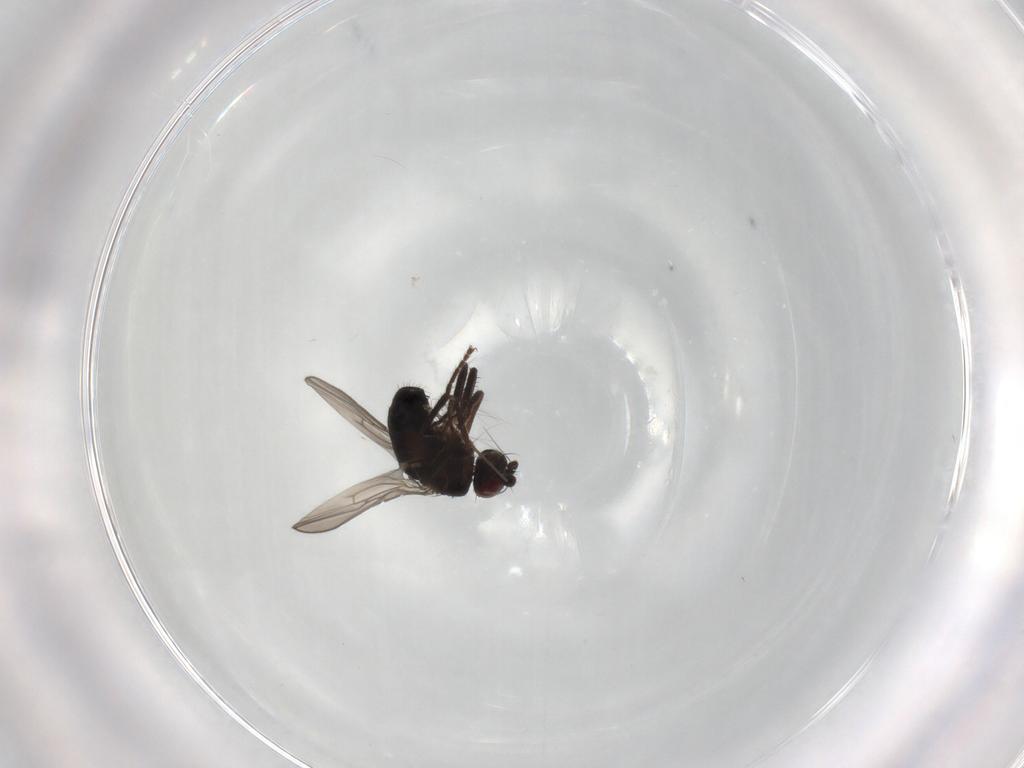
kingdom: Animalia
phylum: Arthropoda
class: Insecta
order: Diptera
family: Sciaridae
